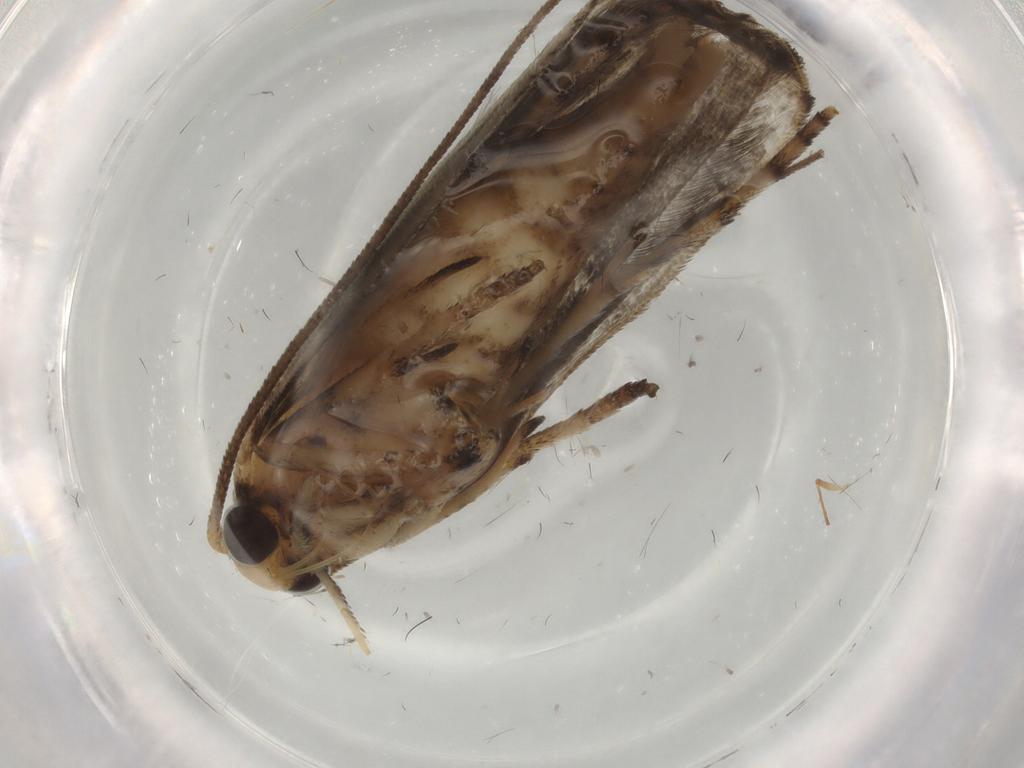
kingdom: Animalia
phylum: Arthropoda
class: Insecta
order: Lepidoptera
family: Yponomeutidae
